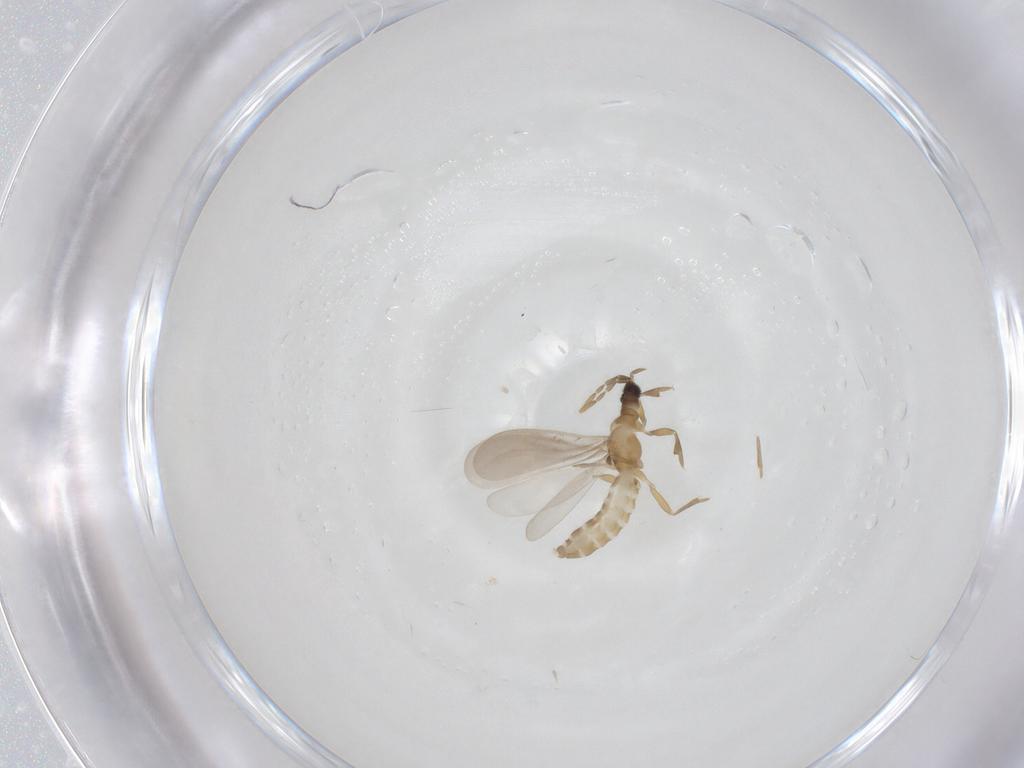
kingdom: Animalia
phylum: Arthropoda
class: Insecta
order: Hemiptera
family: Enicocephalidae
